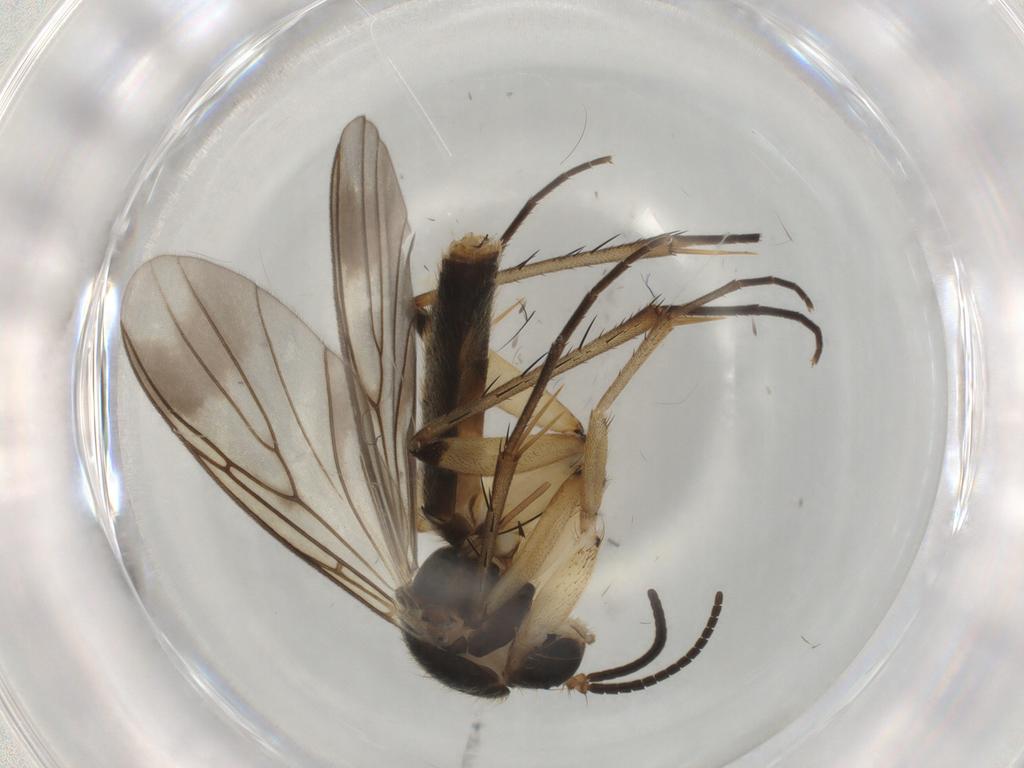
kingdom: Animalia
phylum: Arthropoda
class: Insecta
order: Diptera
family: Mycetophilidae
